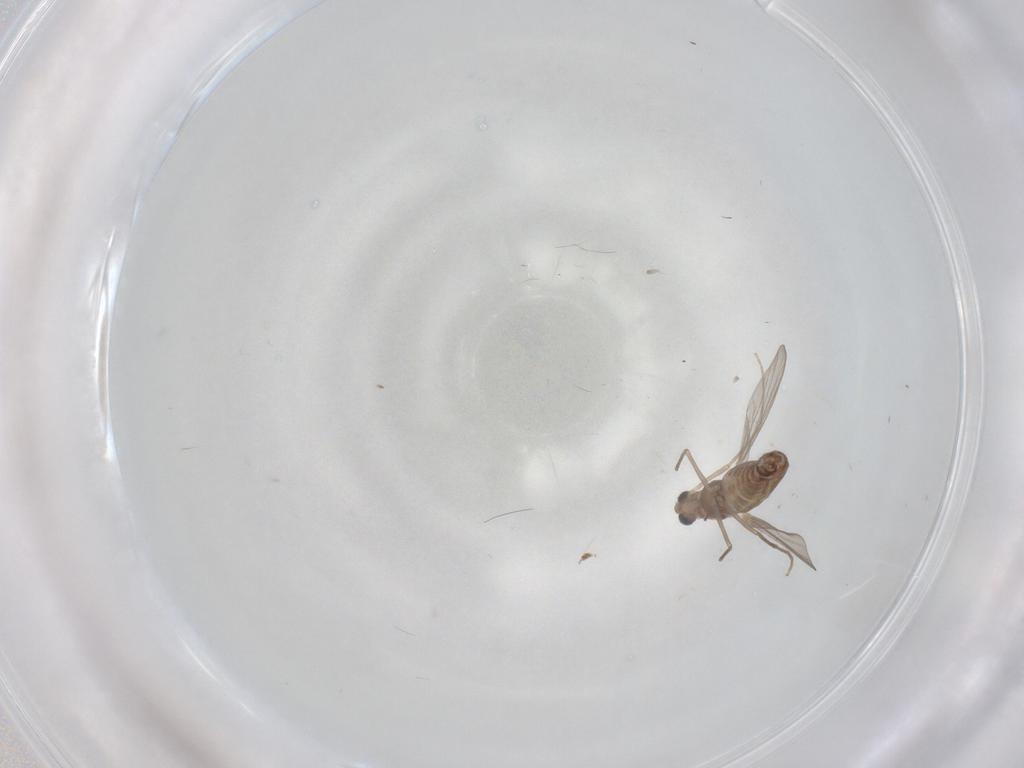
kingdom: Animalia
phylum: Arthropoda
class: Insecta
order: Diptera
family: Chironomidae
